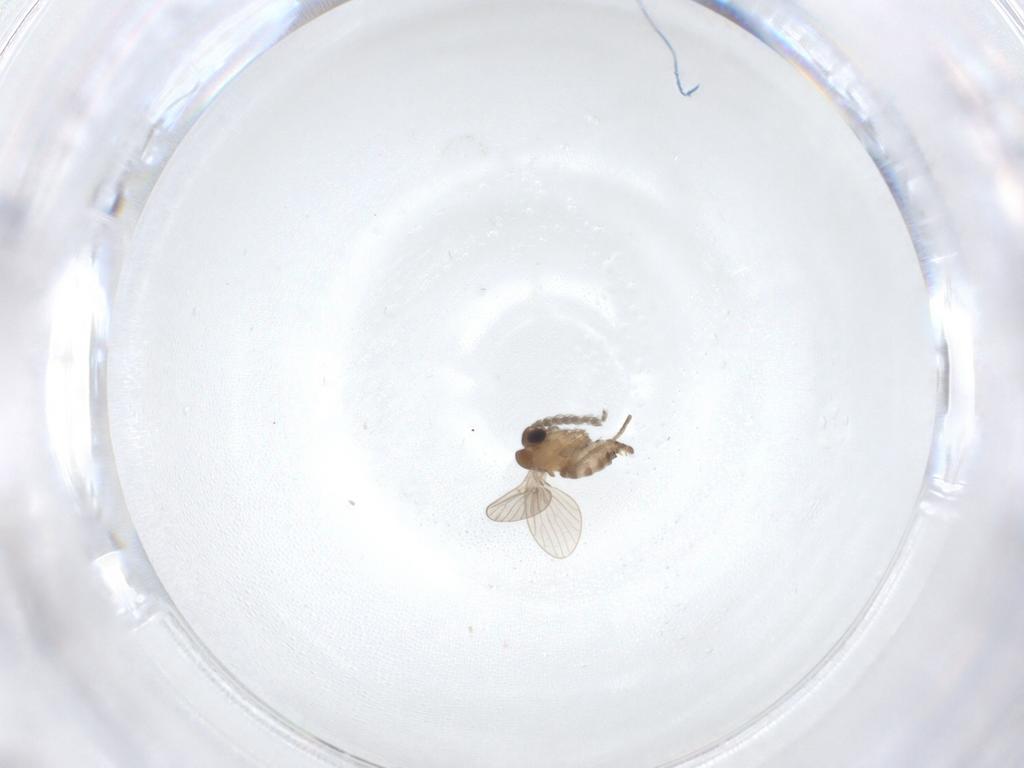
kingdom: Animalia
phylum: Arthropoda
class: Insecta
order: Diptera
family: Psychodidae
